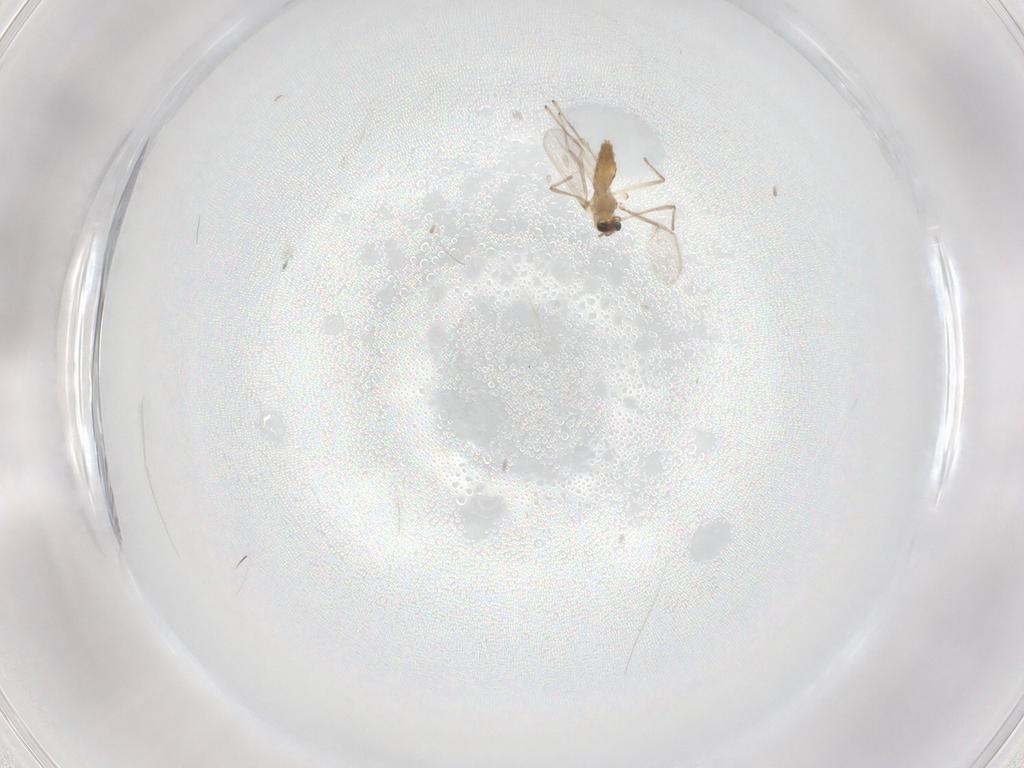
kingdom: Animalia
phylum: Arthropoda
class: Insecta
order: Diptera
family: Chironomidae
